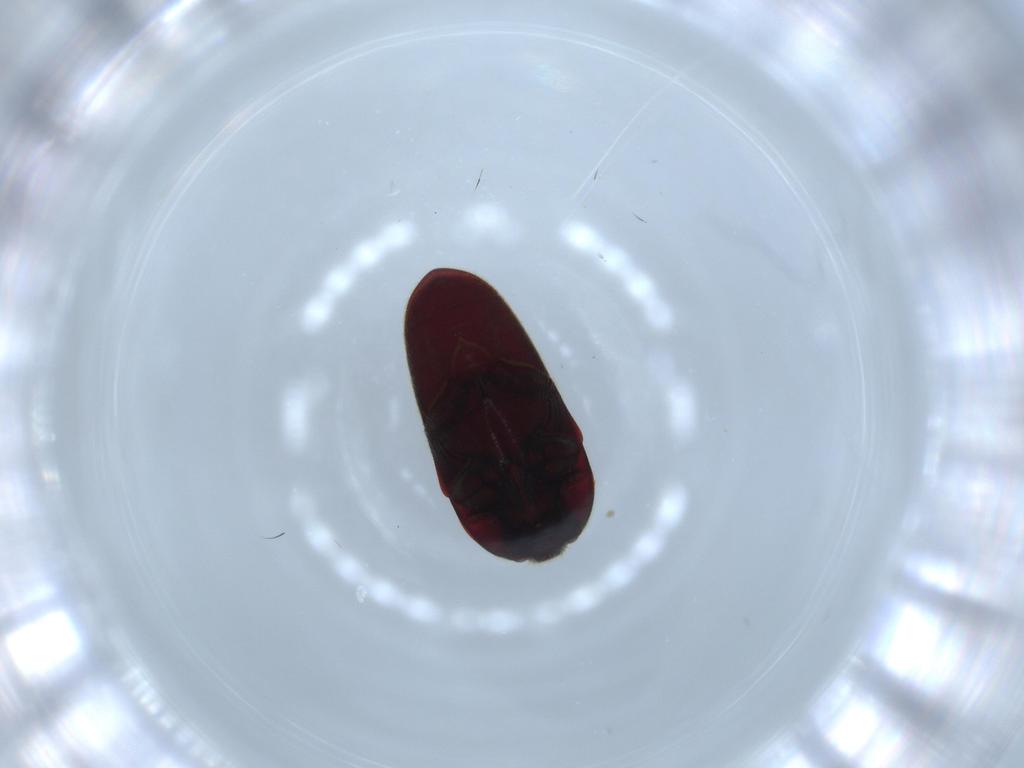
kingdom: Animalia
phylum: Arthropoda
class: Insecta
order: Coleoptera
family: Throscidae
